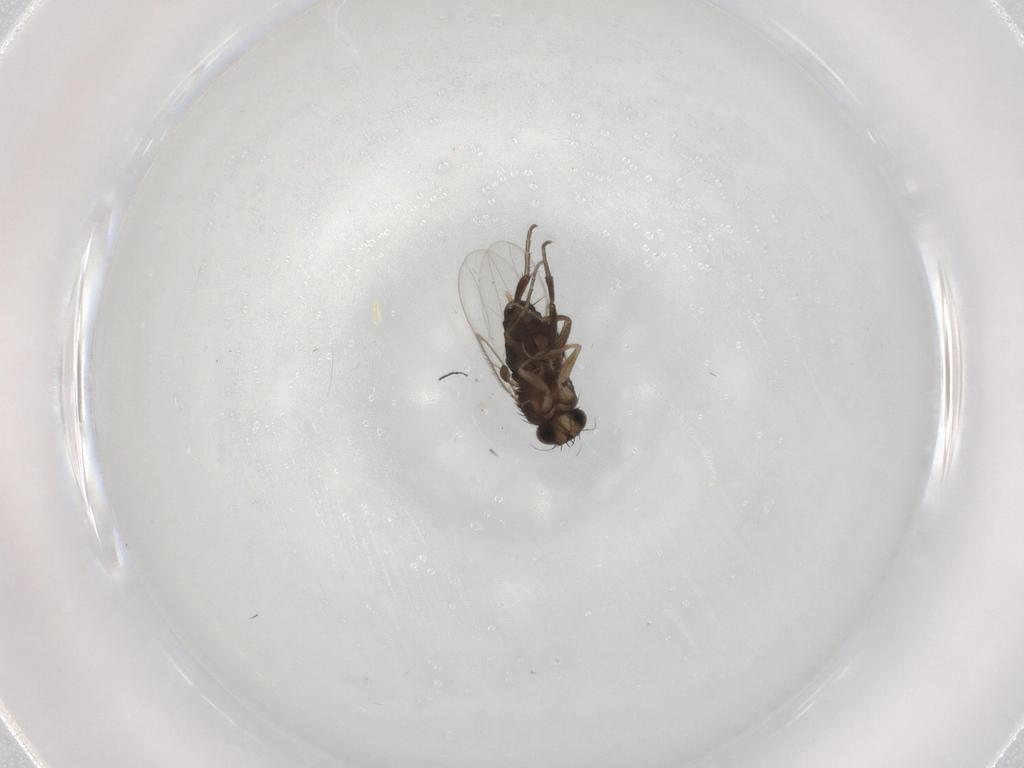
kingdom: Animalia
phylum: Arthropoda
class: Insecta
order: Diptera
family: Phoridae
